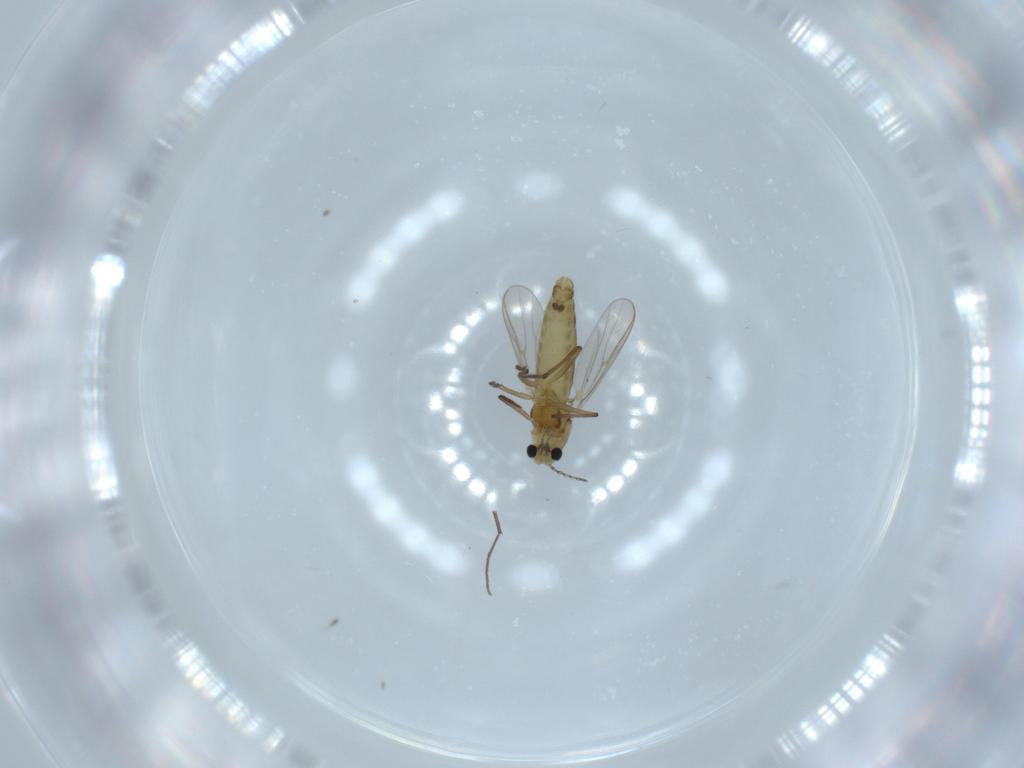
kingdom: Animalia
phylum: Arthropoda
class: Insecta
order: Diptera
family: Chironomidae
